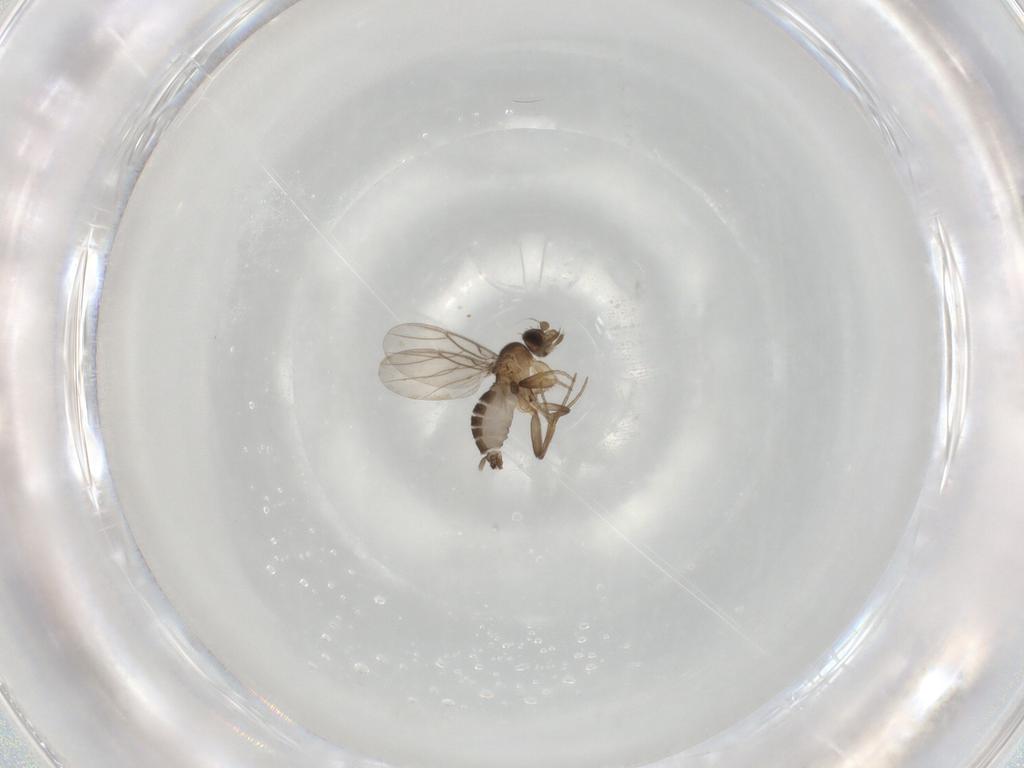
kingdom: Animalia
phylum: Arthropoda
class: Insecta
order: Diptera
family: Phoridae
